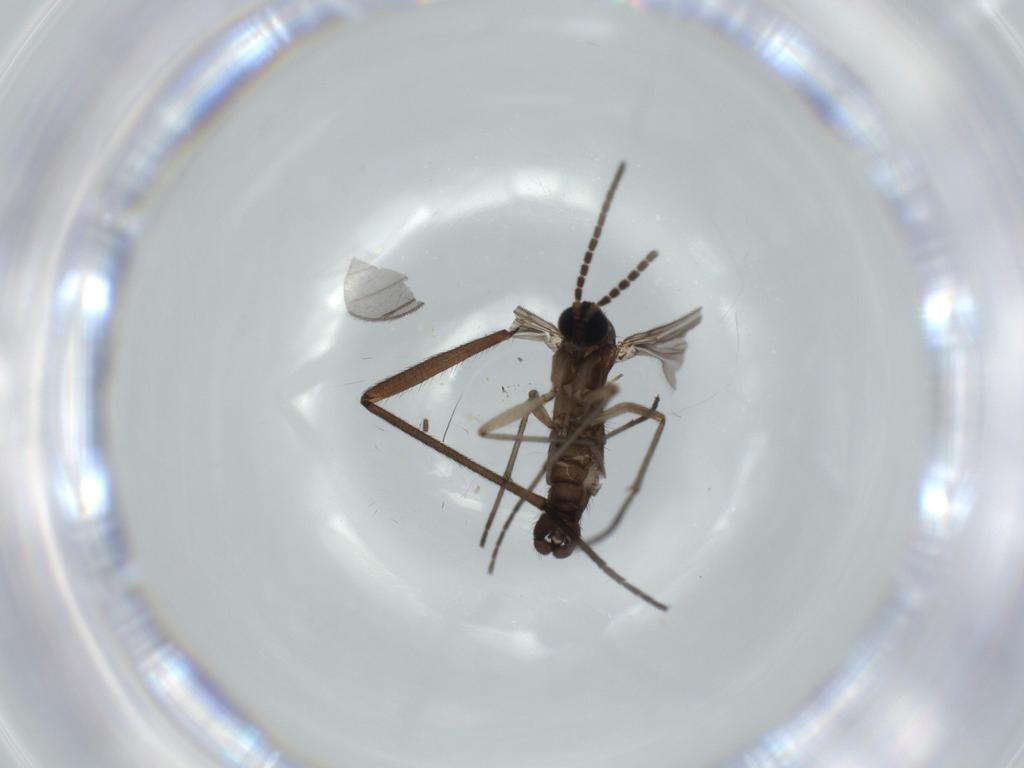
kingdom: Animalia
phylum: Arthropoda
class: Insecta
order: Diptera
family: Sciaridae
